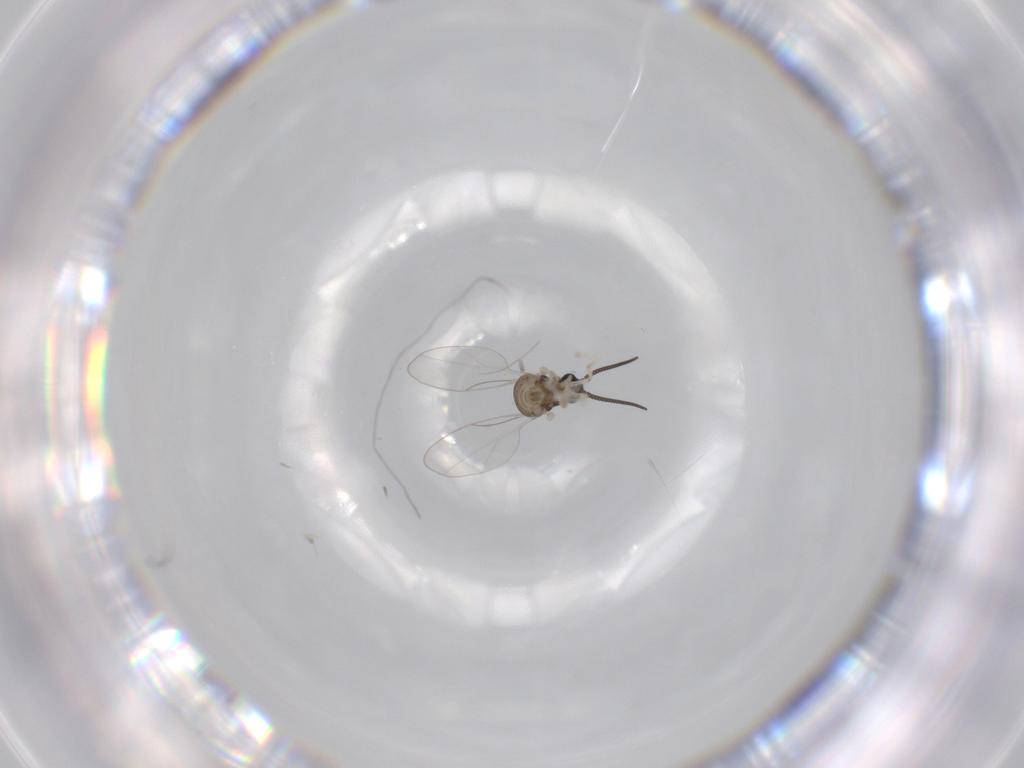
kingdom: Animalia
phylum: Arthropoda
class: Insecta
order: Diptera
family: Cecidomyiidae
